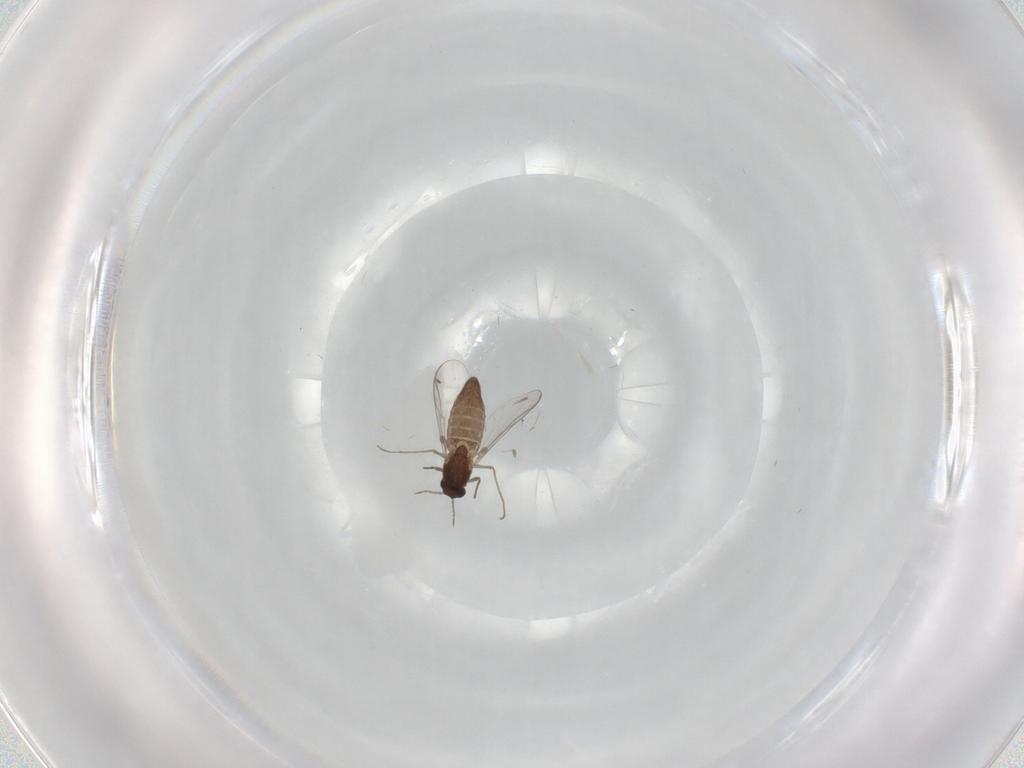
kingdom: Animalia
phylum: Arthropoda
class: Insecta
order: Diptera
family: Psychodidae
